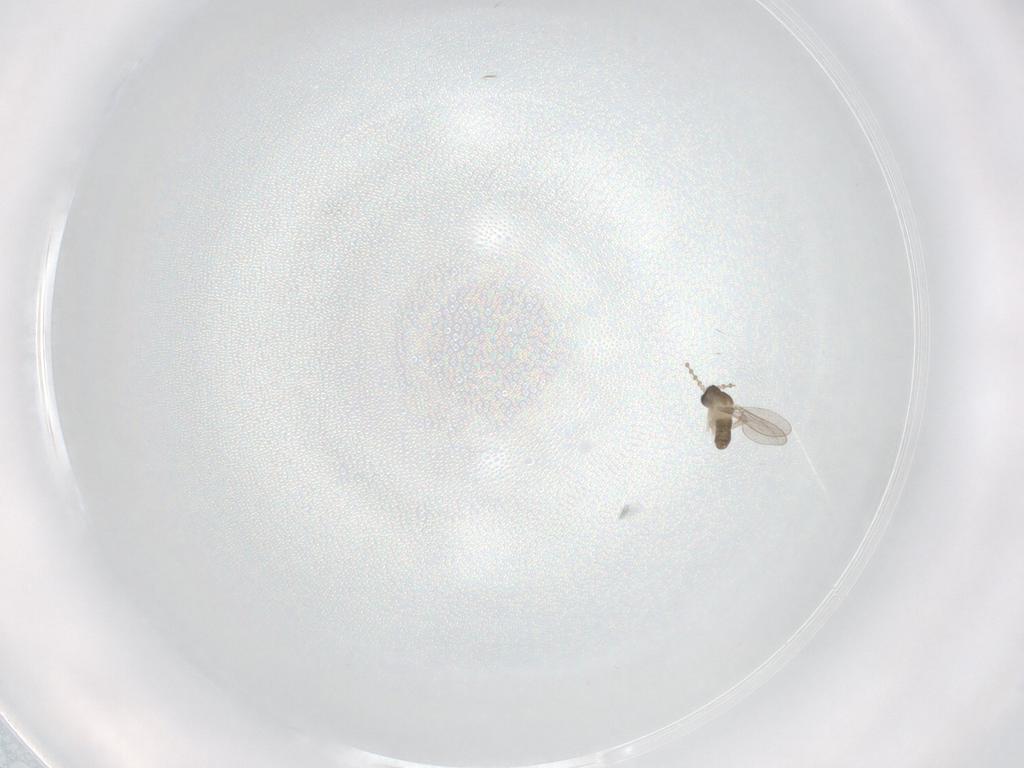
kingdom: Animalia
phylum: Arthropoda
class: Insecta
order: Diptera
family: Cecidomyiidae
